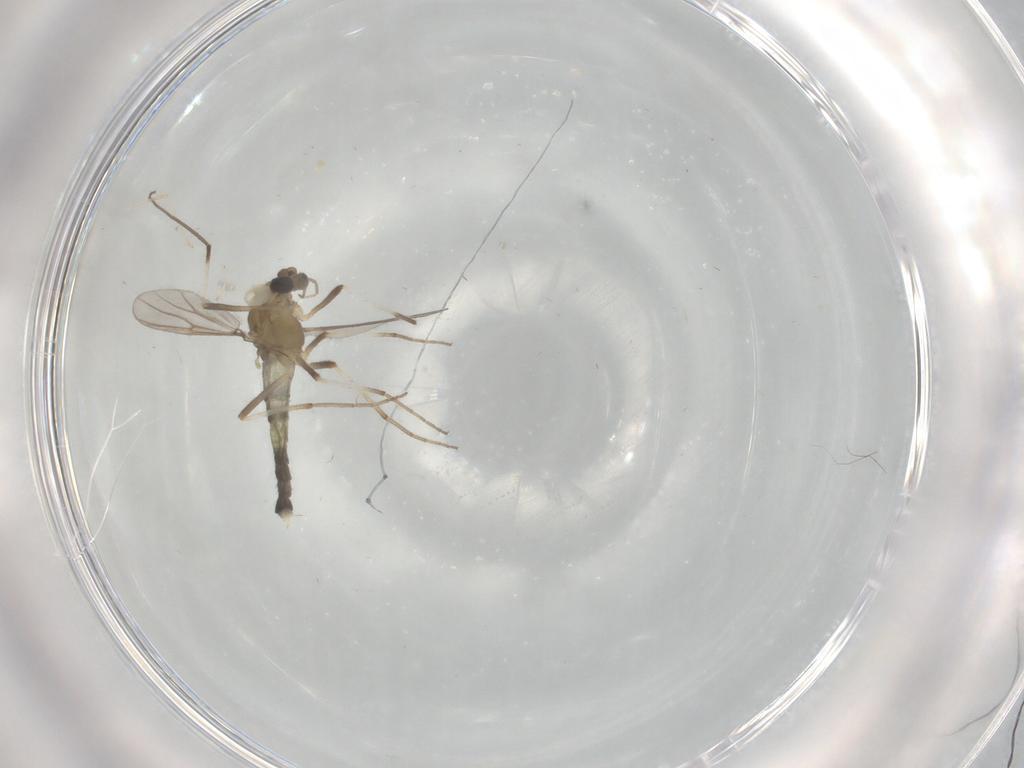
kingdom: Animalia
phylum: Arthropoda
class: Insecta
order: Diptera
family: Chironomidae
